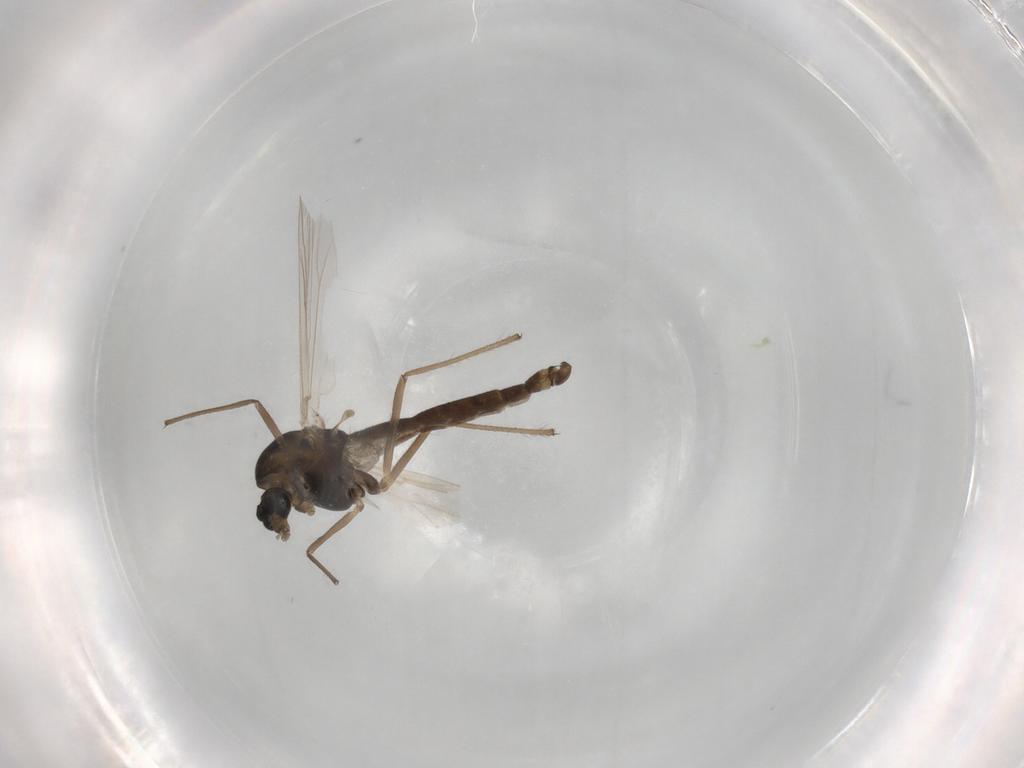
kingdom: Animalia
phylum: Arthropoda
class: Insecta
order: Diptera
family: Chironomidae
